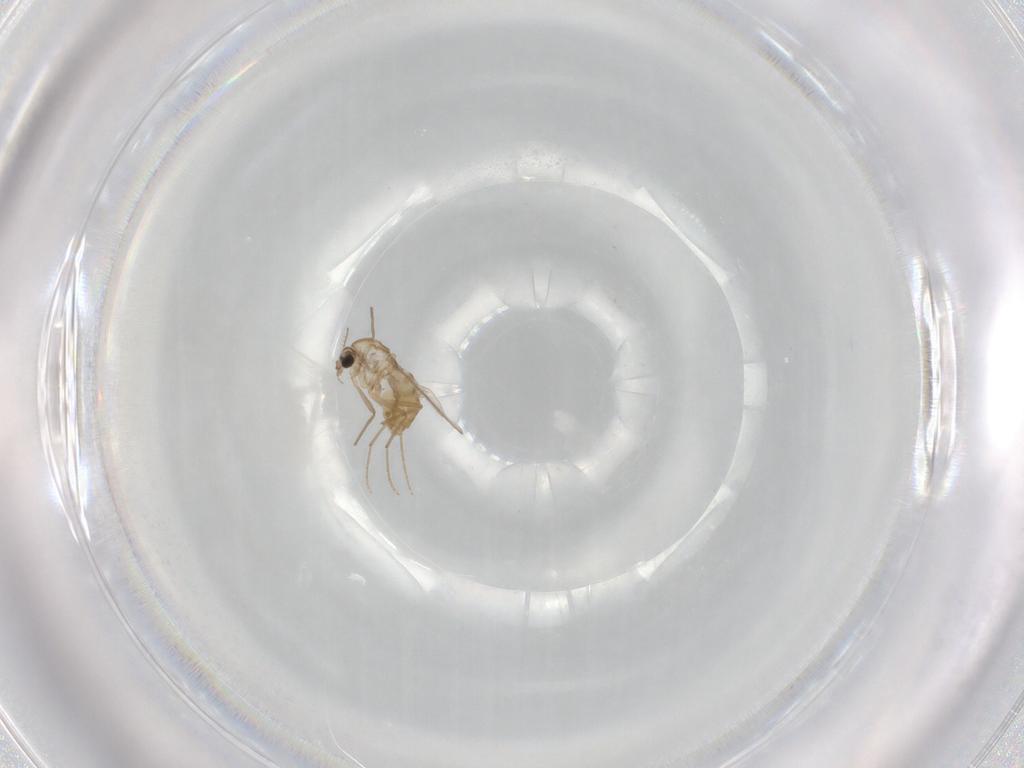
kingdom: Animalia
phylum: Arthropoda
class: Insecta
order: Diptera
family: Chironomidae
